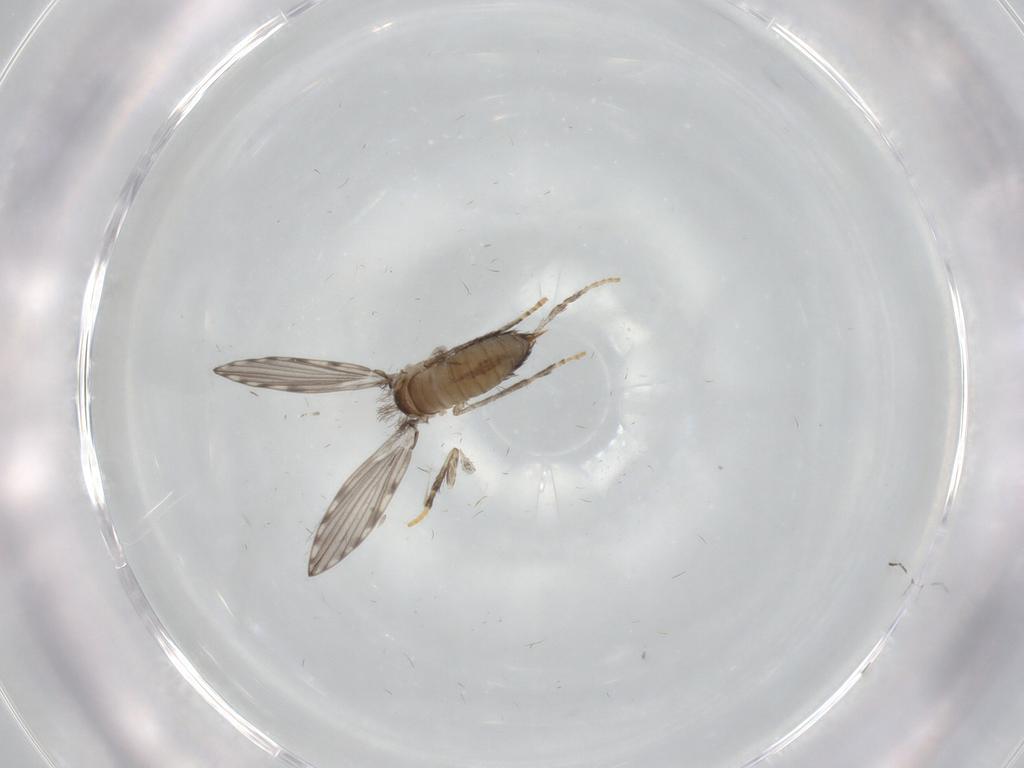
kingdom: Animalia
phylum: Arthropoda
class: Insecta
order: Diptera
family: Psychodidae
